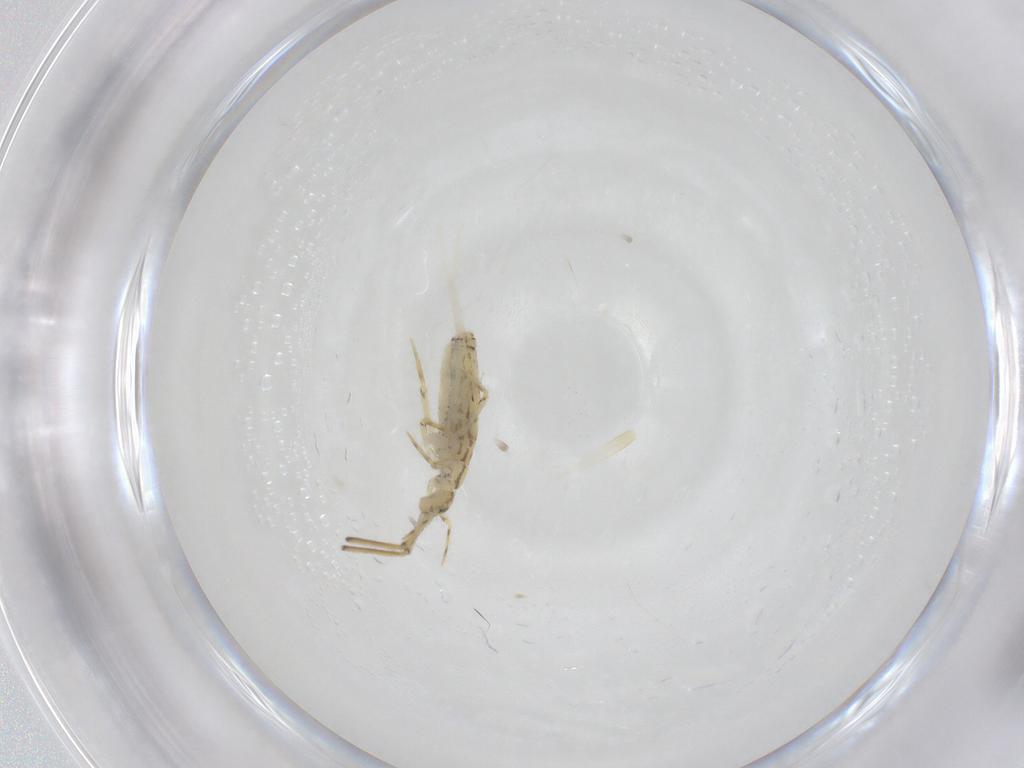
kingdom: Animalia
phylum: Arthropoda
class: Collembola
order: Entomobryomorpha
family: Paronellidae
